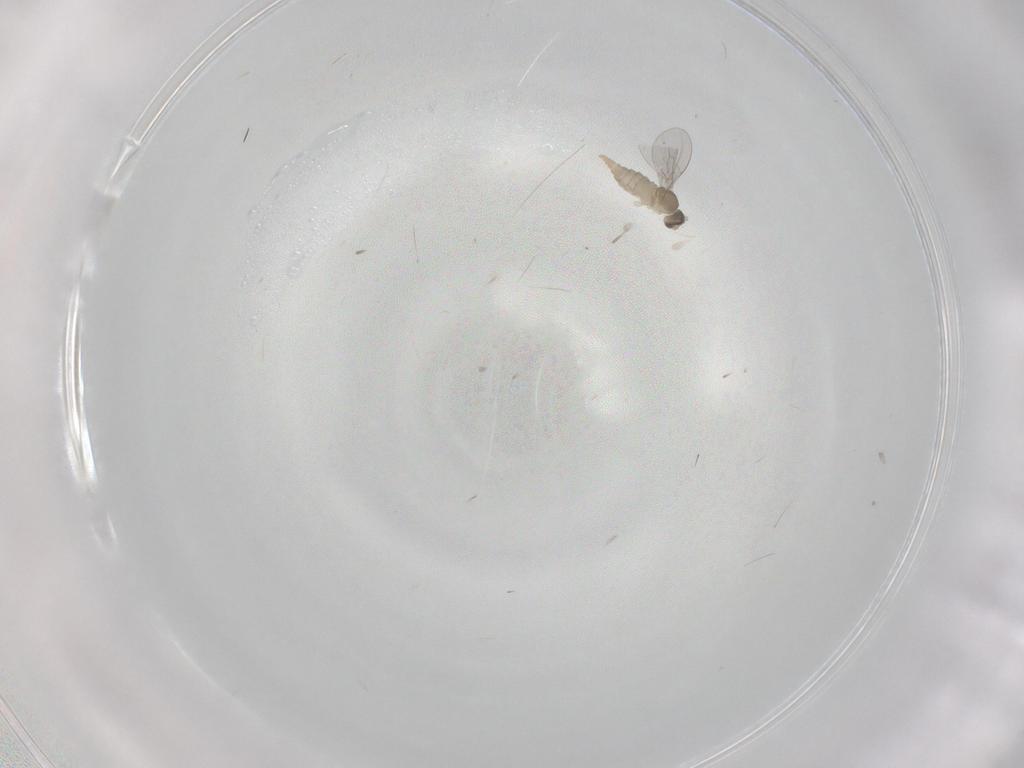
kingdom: Animalia
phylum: Arthropoda
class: Insecta
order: Diptera
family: Cecidomyiidae
